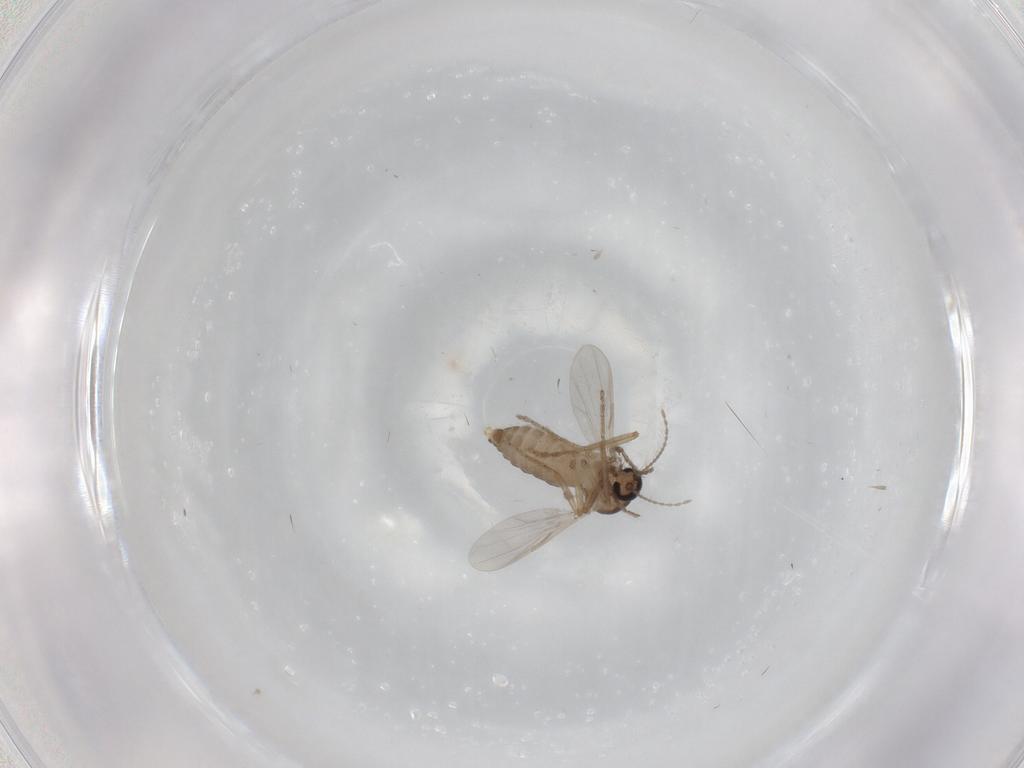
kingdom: Animalia
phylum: Arthropoda
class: Insecta
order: Diptera
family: Ceratopogonidae
